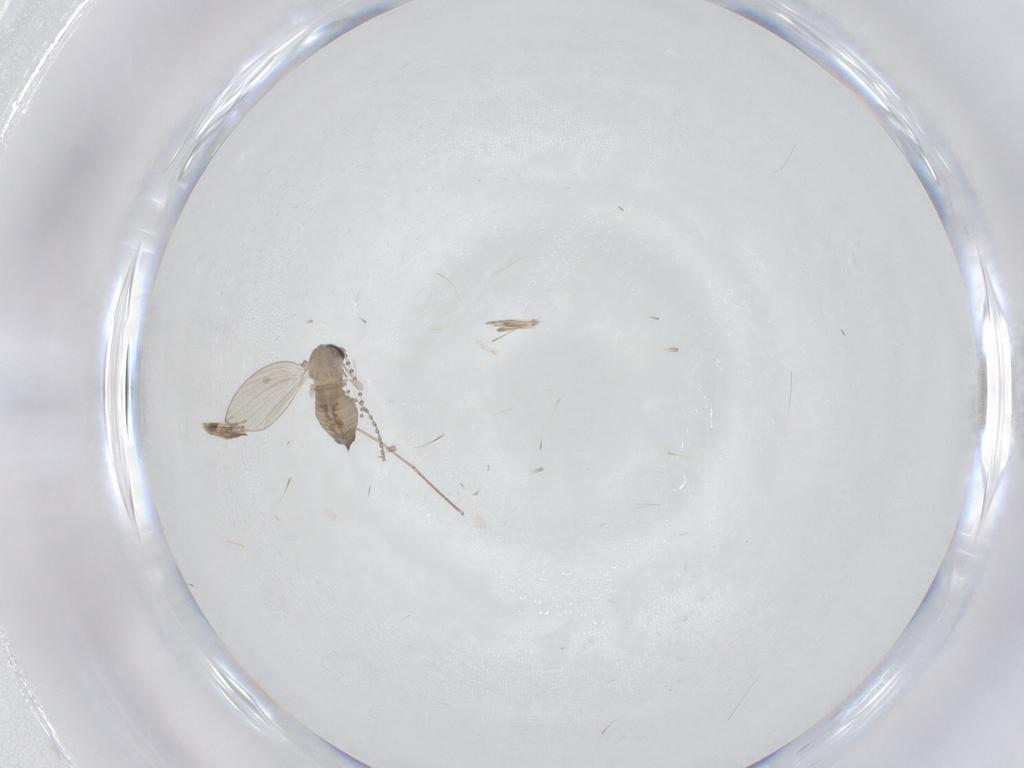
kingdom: Animalia
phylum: Arthropoda
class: Insecta
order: Diptera
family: Psychodidae
